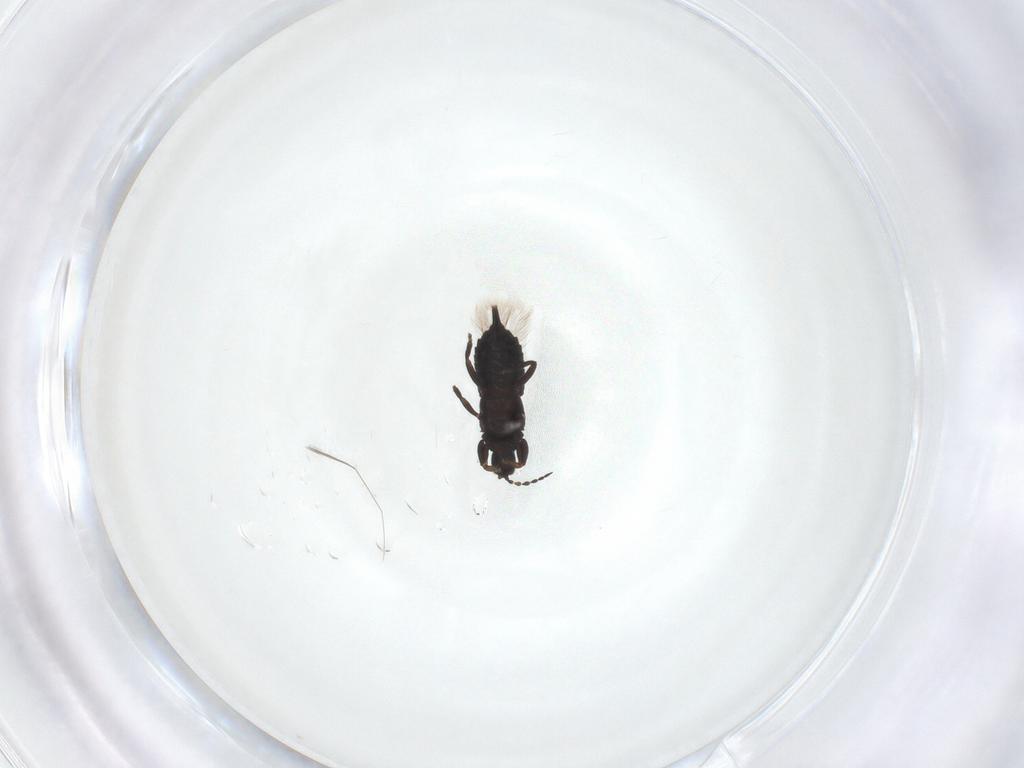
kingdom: Animalia
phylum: Arthropoda
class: Insecta
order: Thysanoptera
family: Phlaeothripidae
